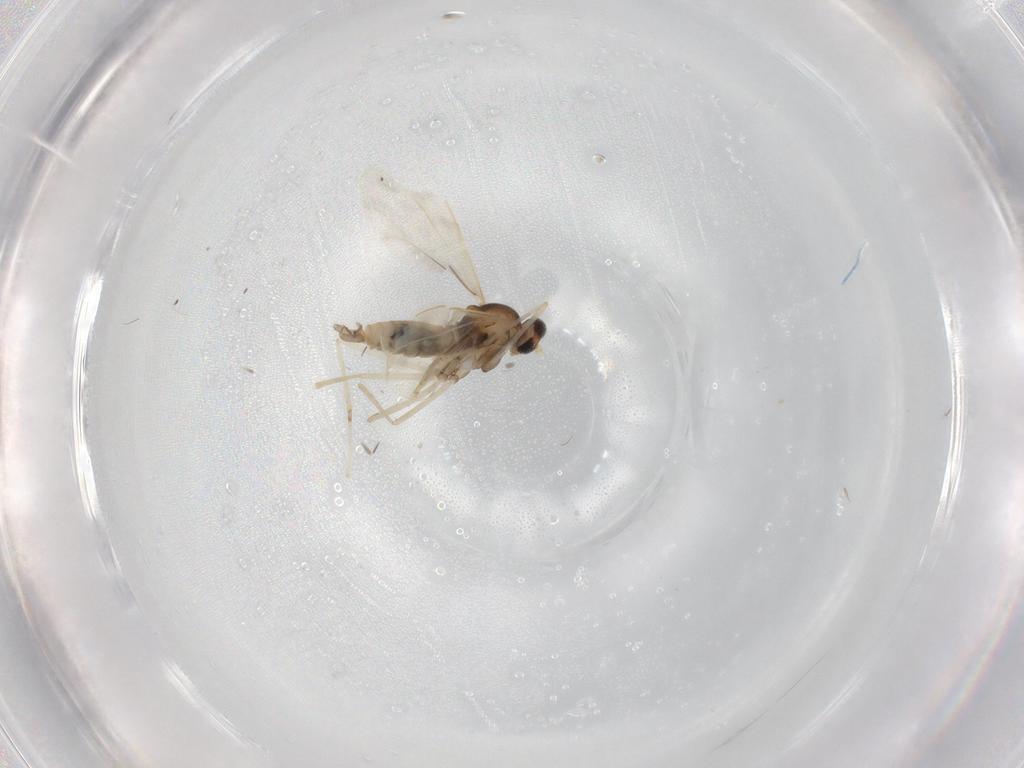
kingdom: Animalia
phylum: Arthropoda
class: Insecta
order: Diptera
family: Cecidomyiidae
